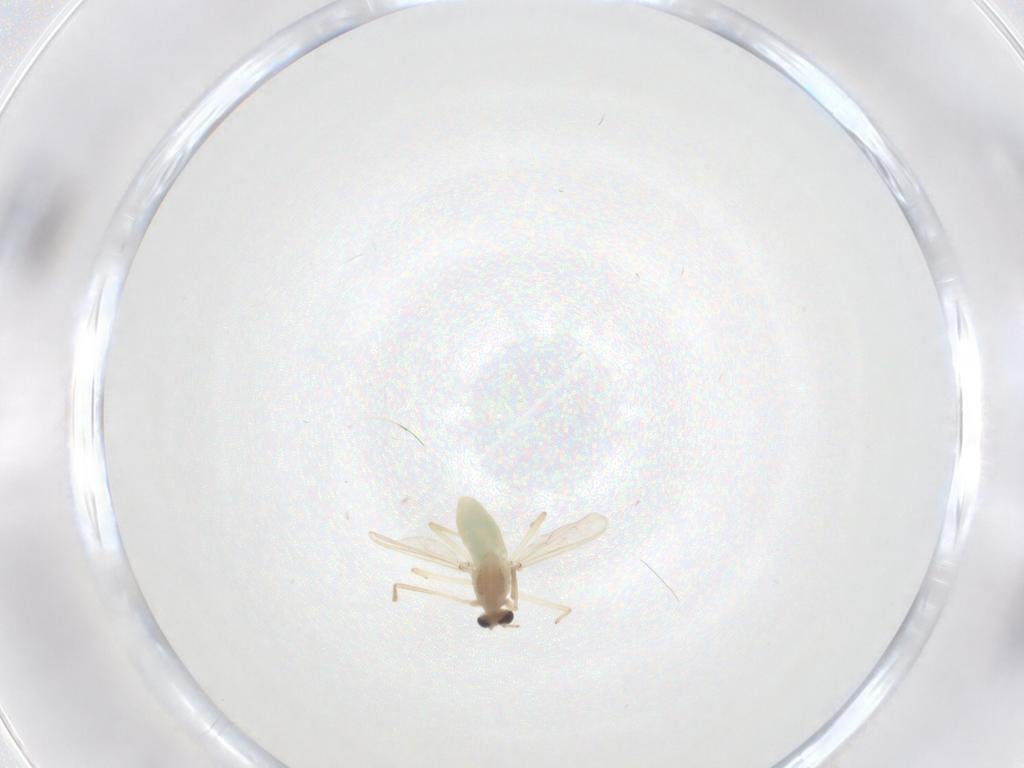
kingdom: Animalia
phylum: Arthropoda
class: Insecta
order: Diptera
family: Chironomidae
